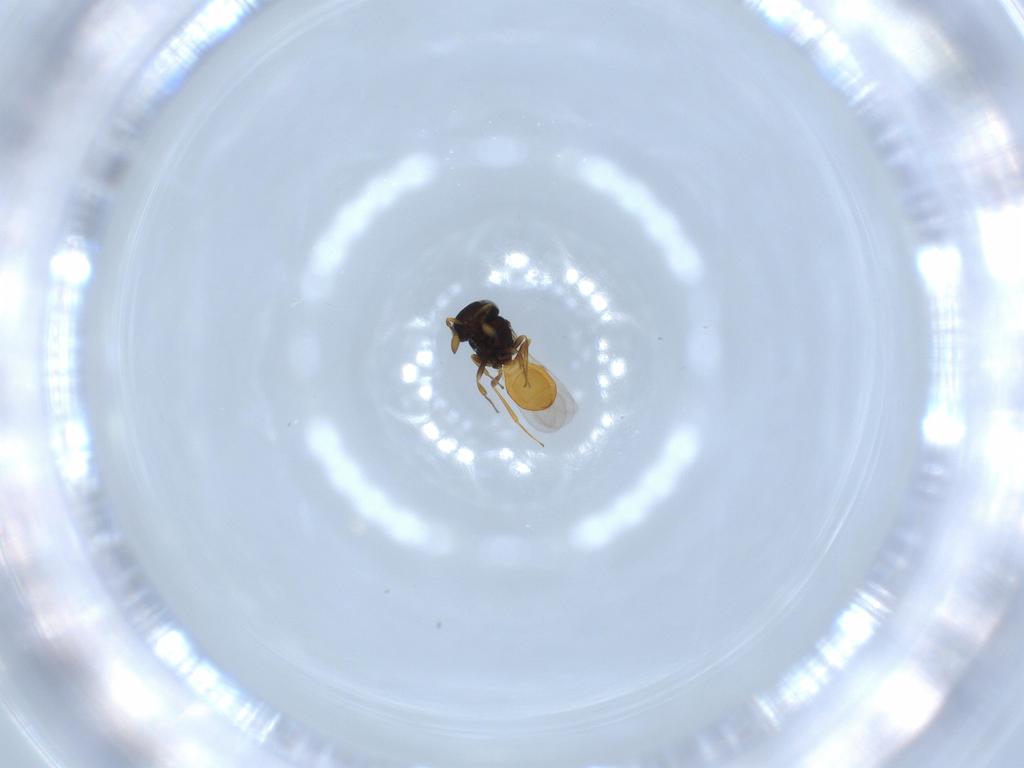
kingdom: Animalia
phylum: Arthropoda
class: Insecta
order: Hymenoptera
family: Scelionidae
